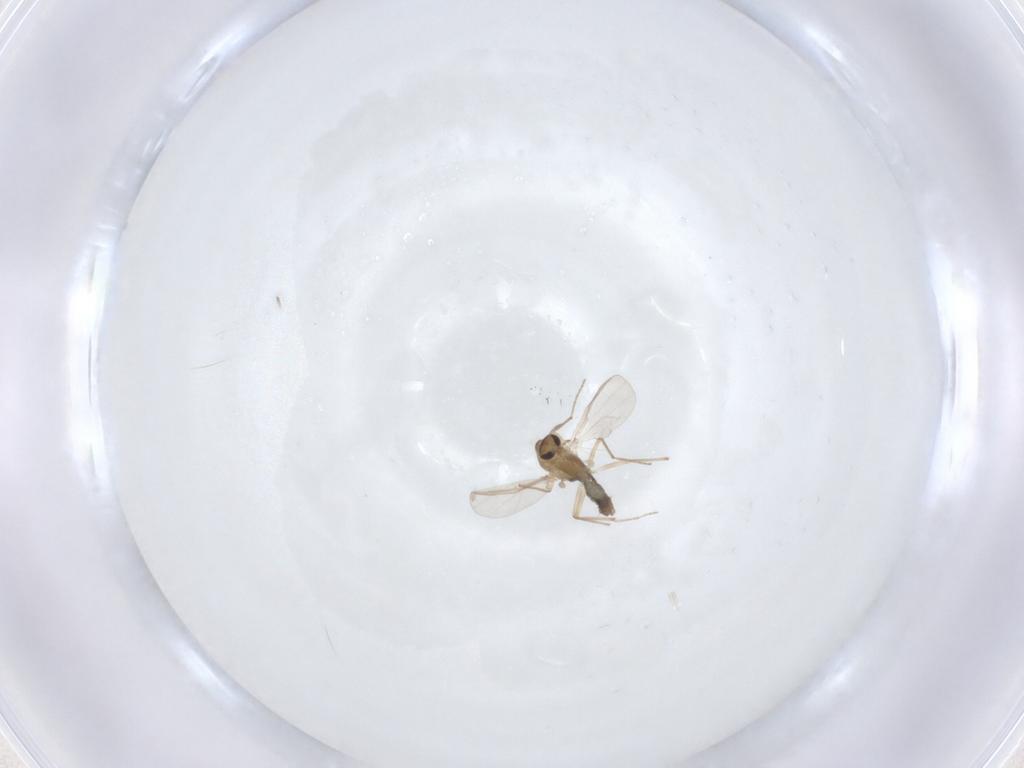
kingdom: Animalia
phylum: Arthropoda
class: Insecta
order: Diptera
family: Chironomidae
